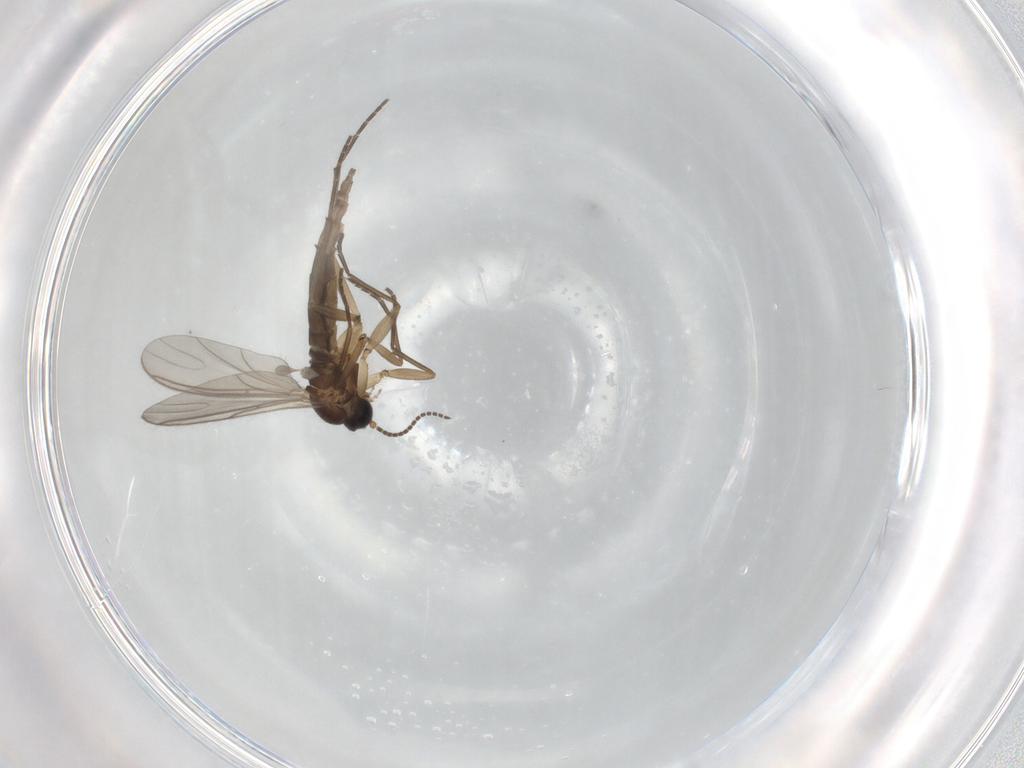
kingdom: Animalia
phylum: Arthropoda
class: Insecta
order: Diptera
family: Sciaridae
